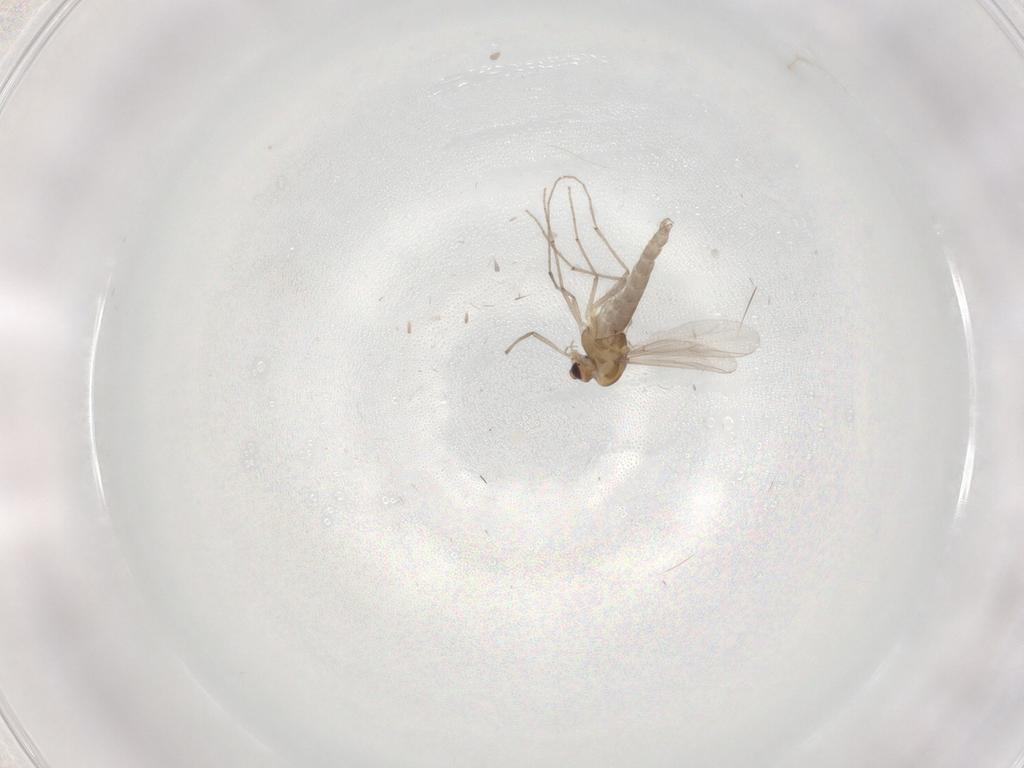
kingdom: Animalia
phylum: Arthropoda
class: Insecta
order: Diptera
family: Chironomidae
